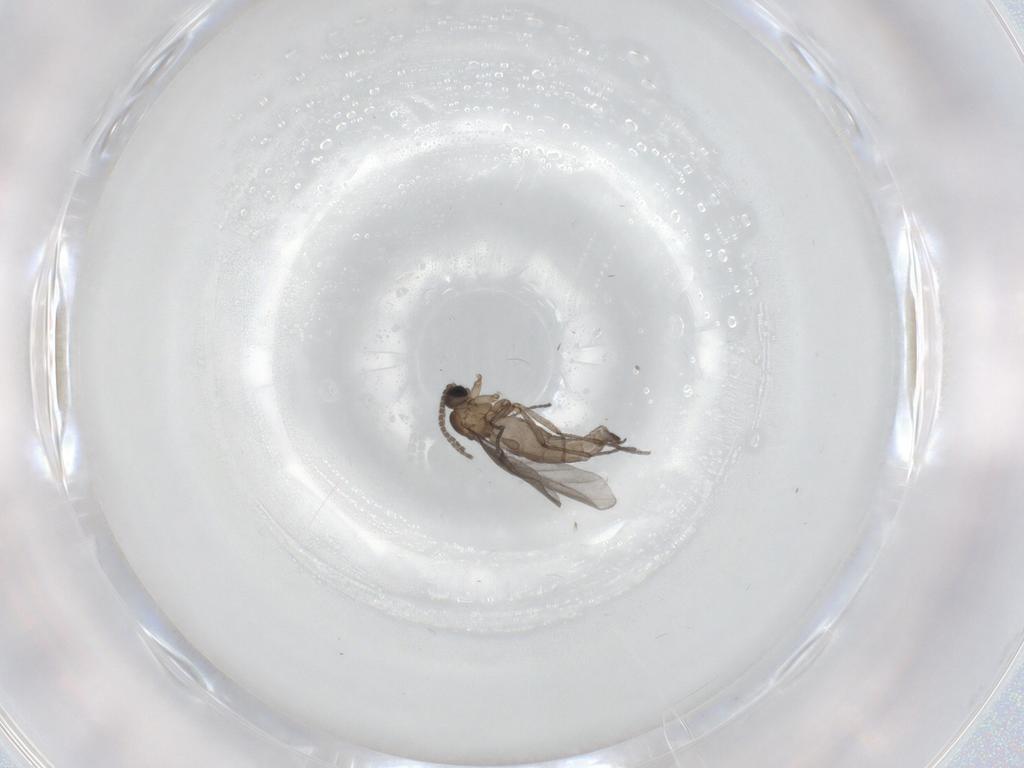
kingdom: Animalia
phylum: Arthropoda
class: Insecta
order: Diptera
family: Sciaridae
